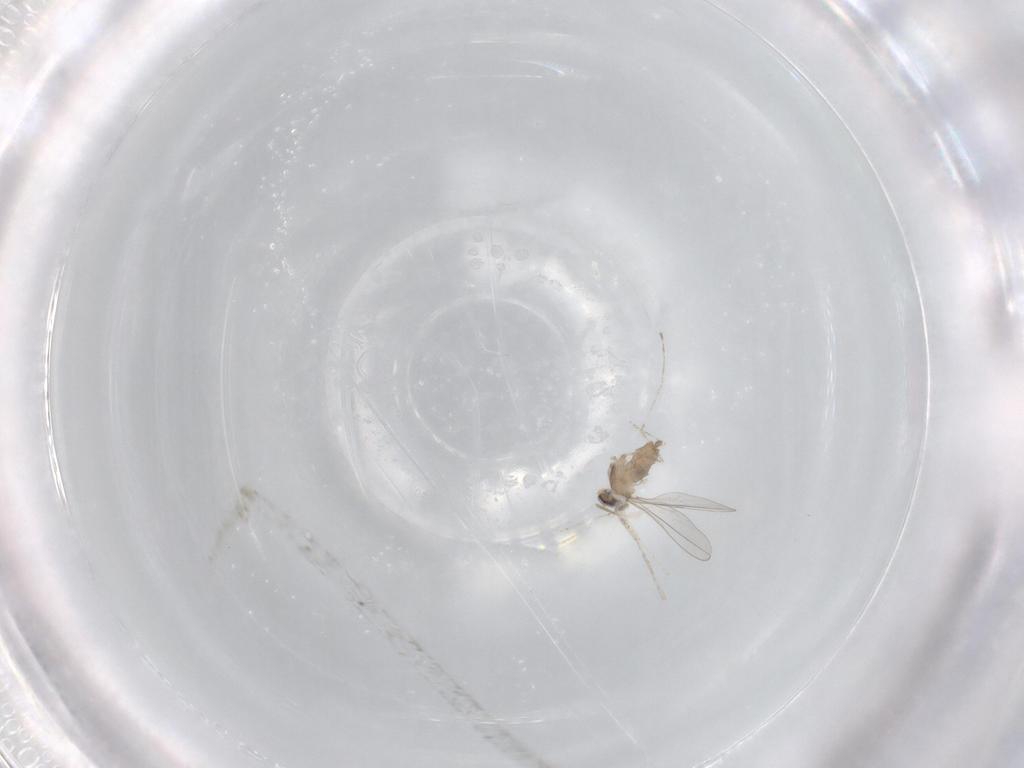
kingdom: Animalia
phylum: Arthropoda
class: Insecta
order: Diptera
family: Cecidomyiidae
